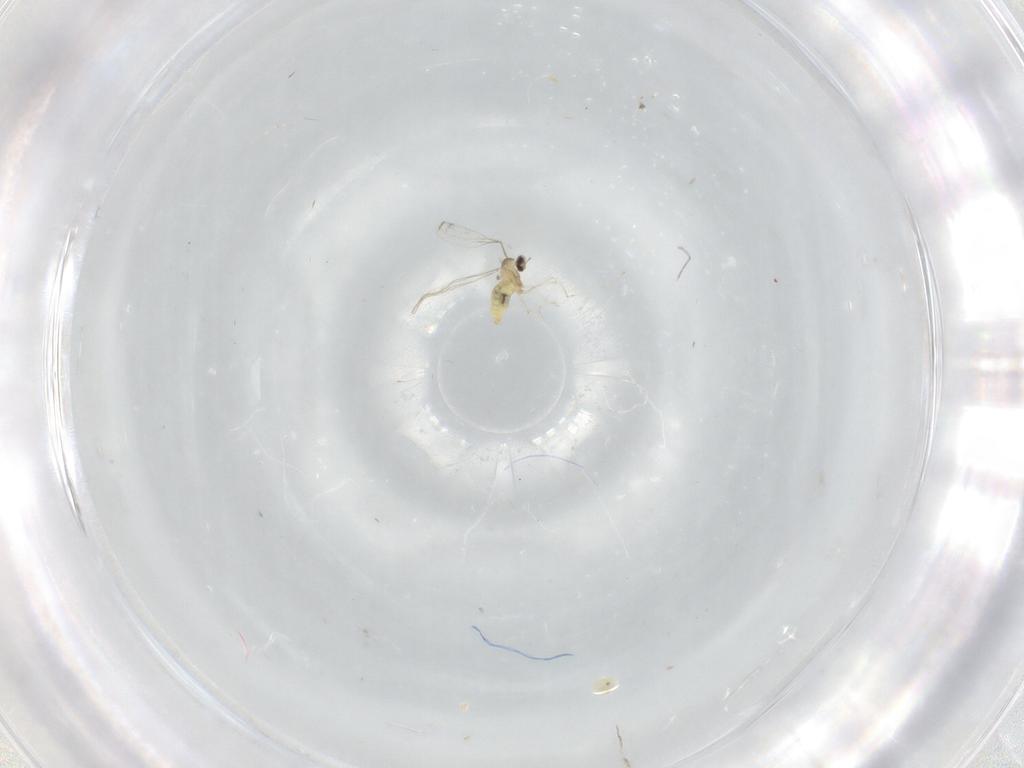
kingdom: Animalia
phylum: Arthropoda
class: Insecta
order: Diptera
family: Cecidomyiidae
